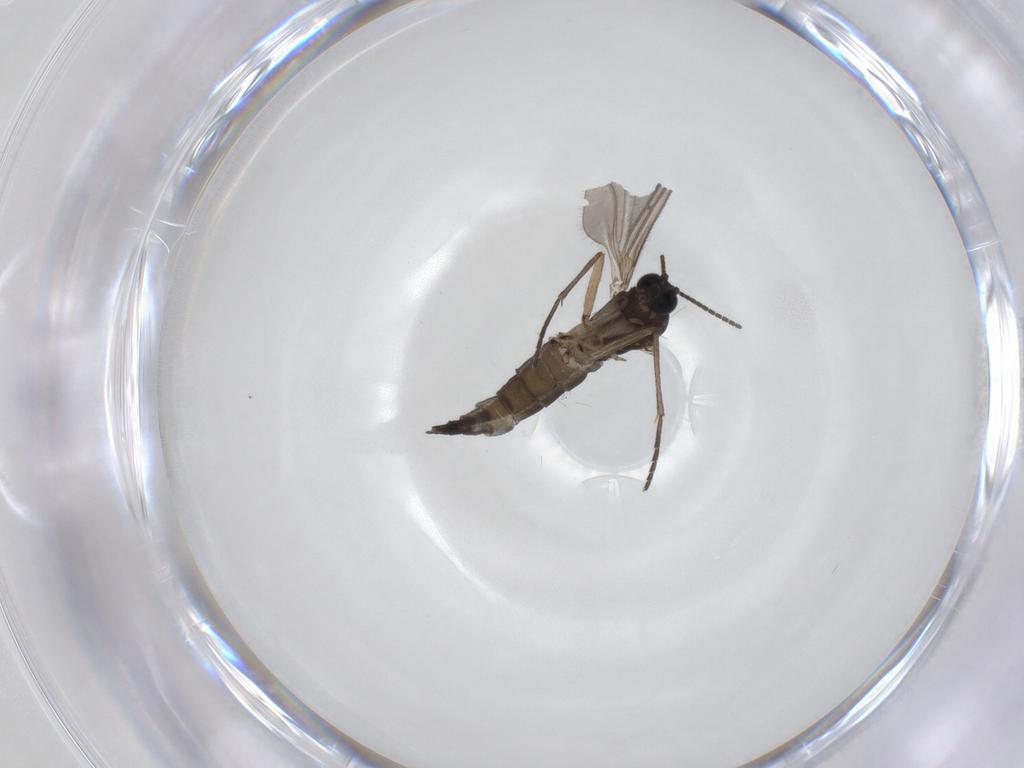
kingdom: Animalia
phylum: Arthropoda
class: Insecta
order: Diptera
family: Sciaridae
